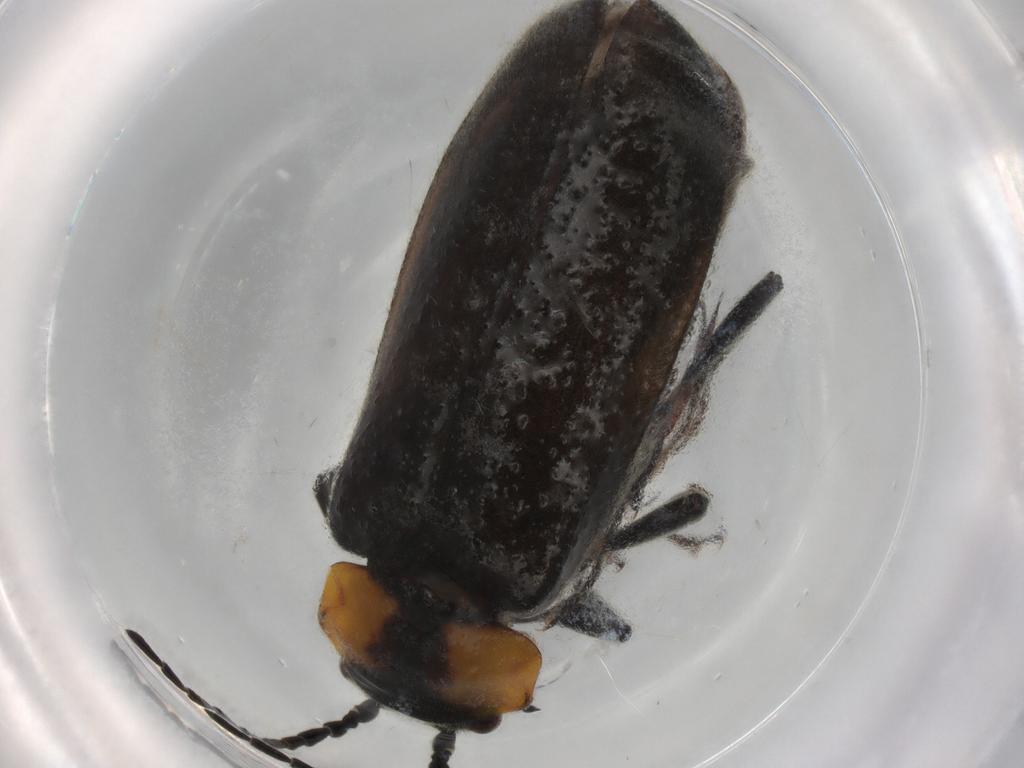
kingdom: Animalia
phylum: Arthropoda
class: Insecta
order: Coleoptera
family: Cantharidae
